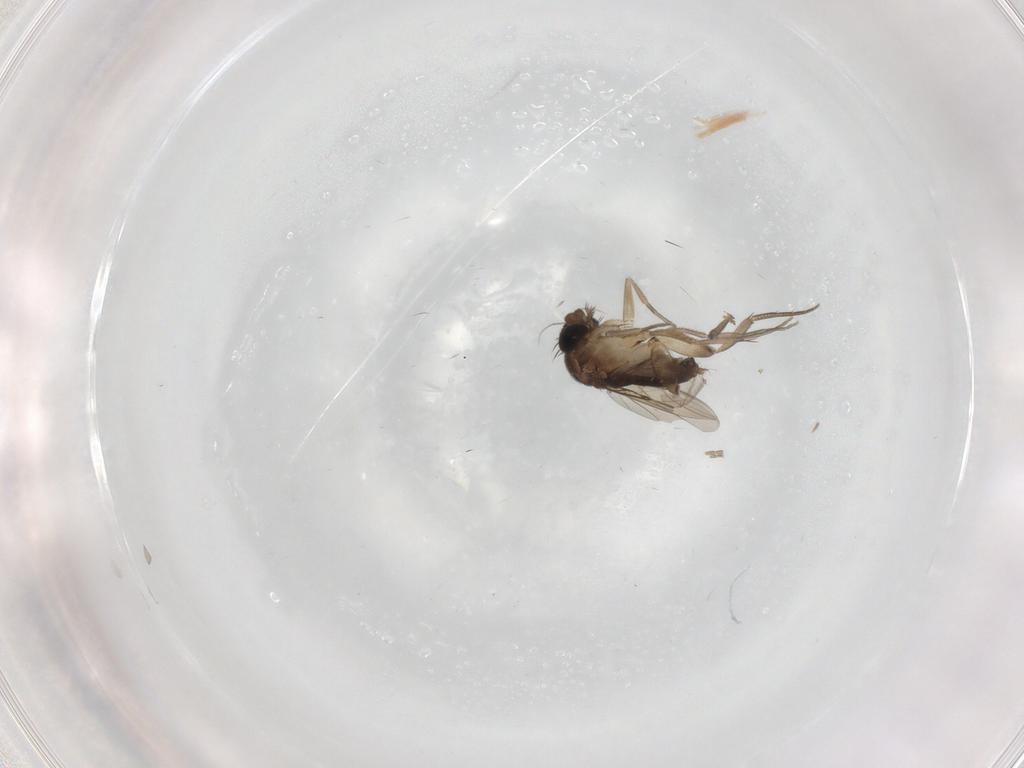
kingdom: Animalia
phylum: Arthropoda
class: Insecta
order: Diptera
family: Phoridae
